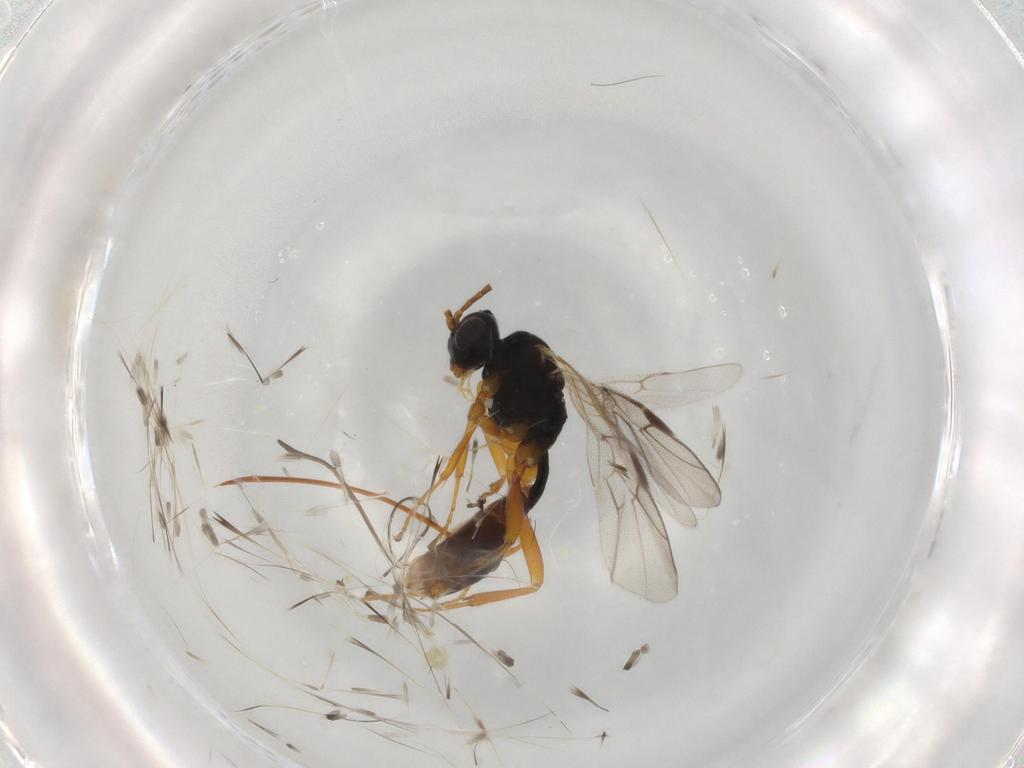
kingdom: Animalia
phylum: Arthropoda
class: Insecta
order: Hymenoptera
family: Ichneumonidae
